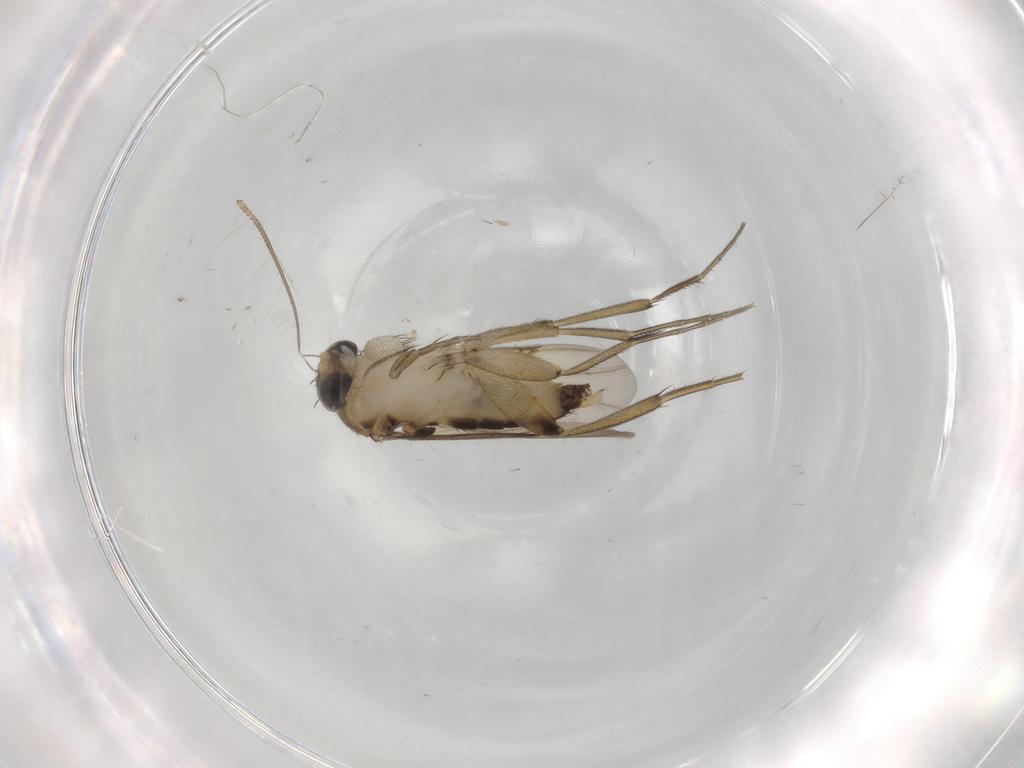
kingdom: Animalia
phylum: Arthropoda
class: Insecta
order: Diptera
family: Phoridae
